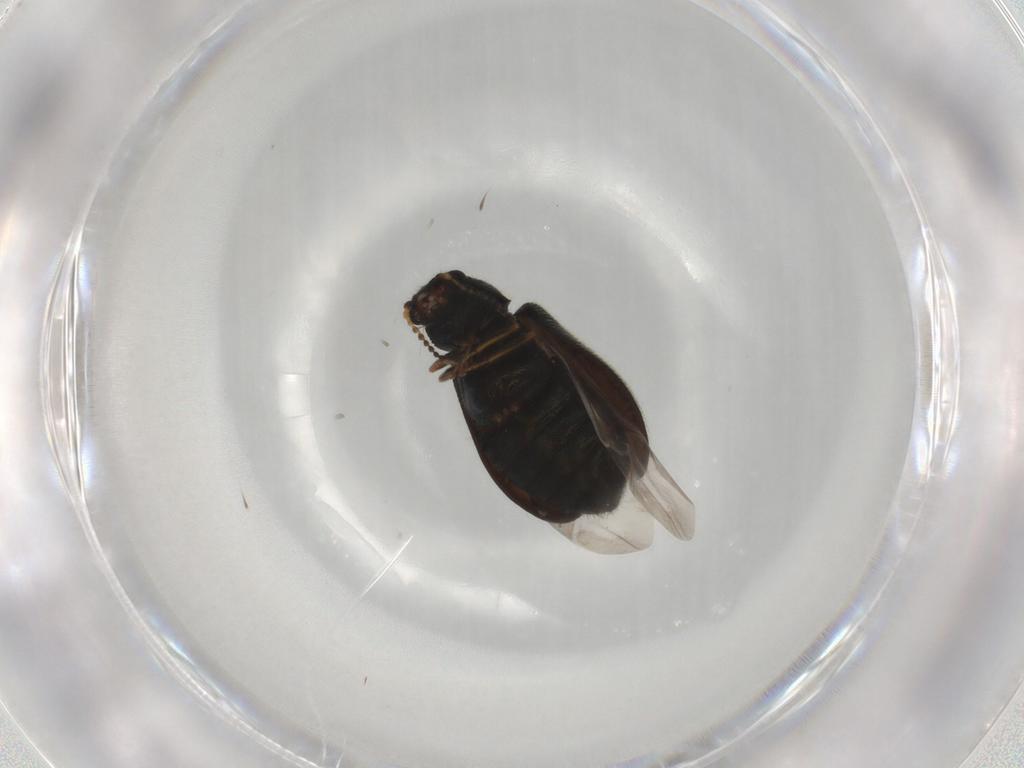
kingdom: Animalia
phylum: Arthropoda
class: Insecta
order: Coleoptera
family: Melyridae
